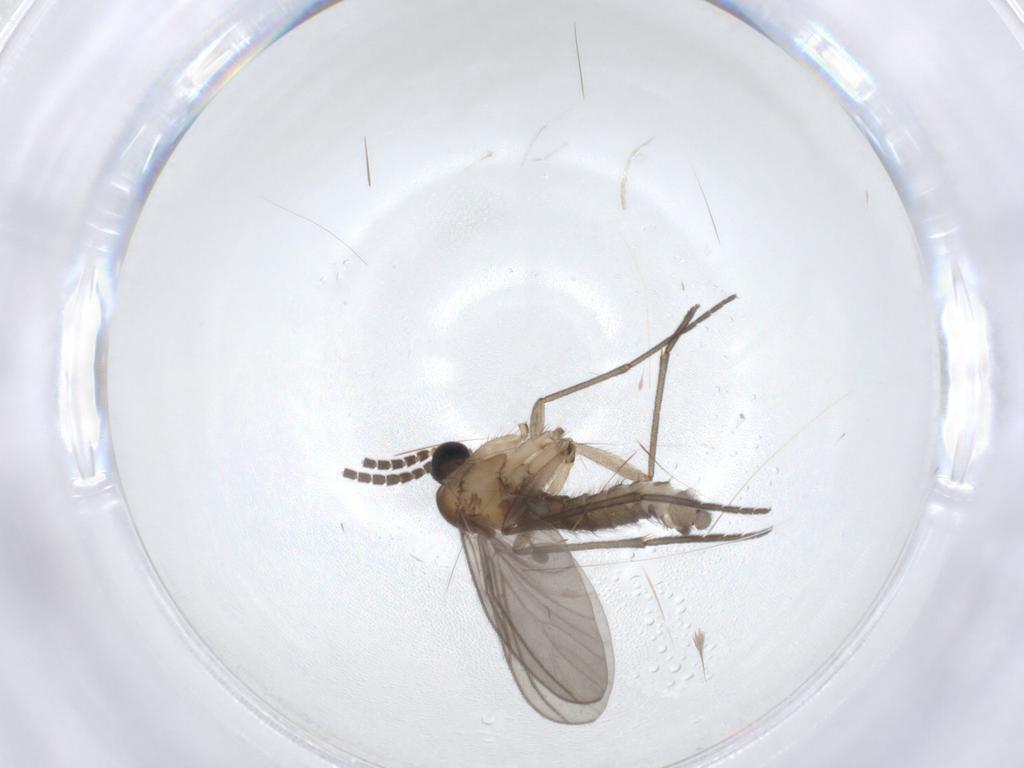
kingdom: Animalia
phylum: Arthropoda
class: Insecta
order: Diptera
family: Sciaridae
